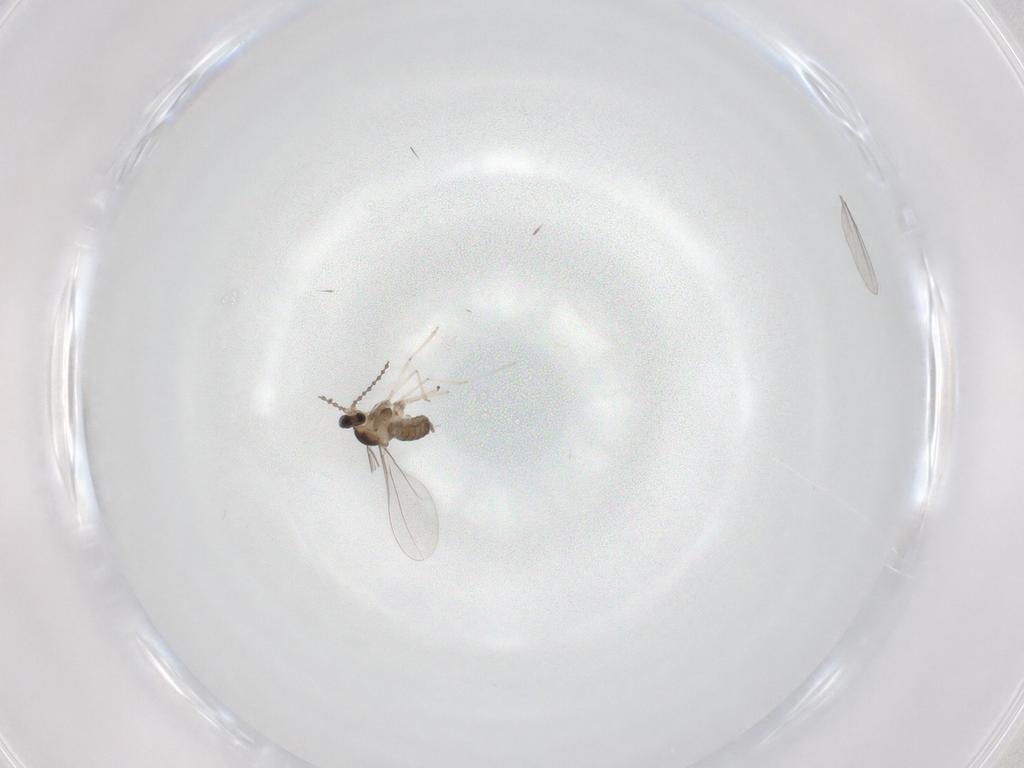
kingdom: Animalia
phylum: Arthropoda
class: Insecta
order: Diptera
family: Cecidomyiidae
